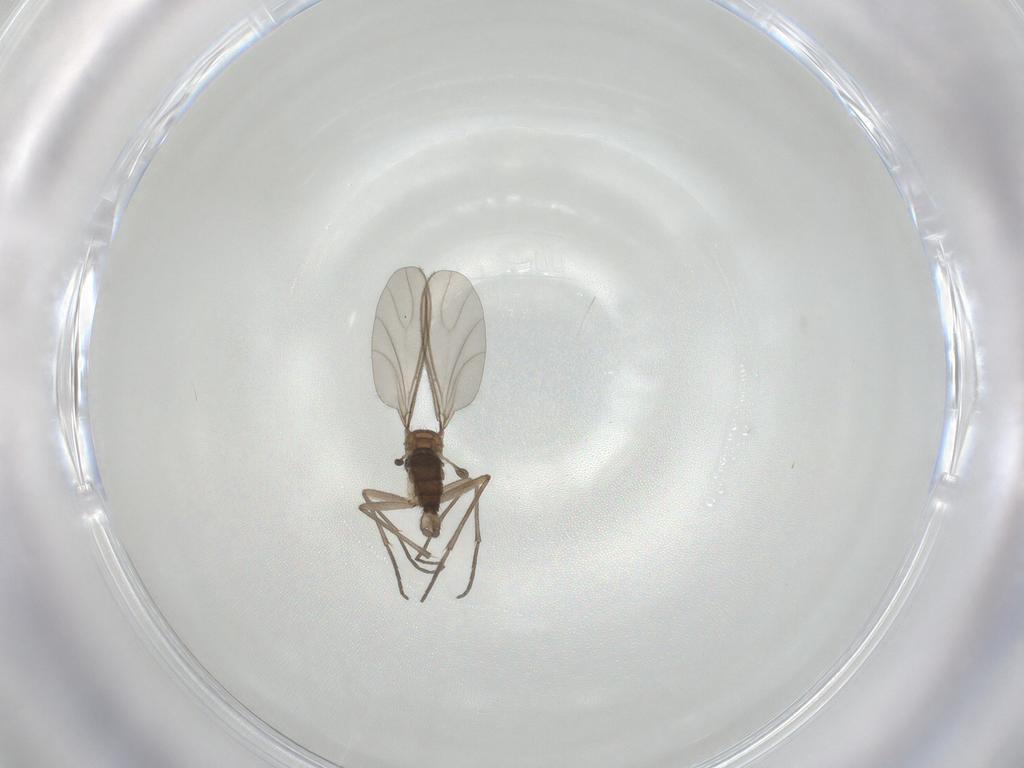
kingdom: Animalia
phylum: Arthropoda
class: Insecta
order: Diptera
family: Sciaridae
